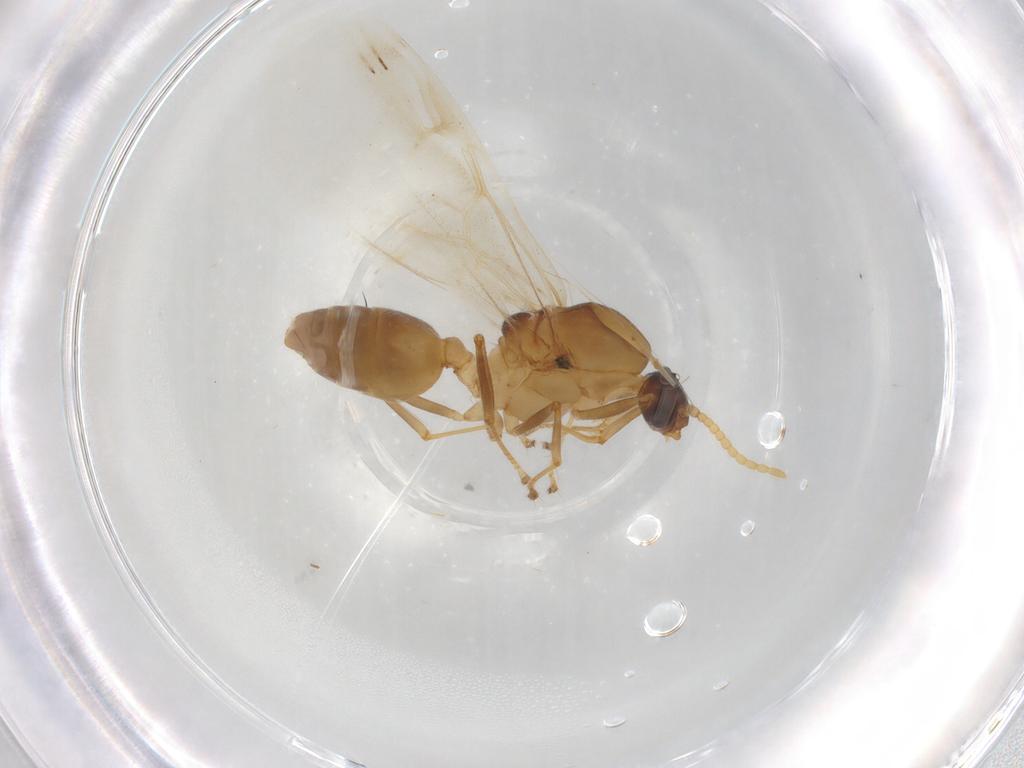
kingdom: Animalia
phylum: Arthropoda
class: Insecta
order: Hymenoptera
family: Formicidae
